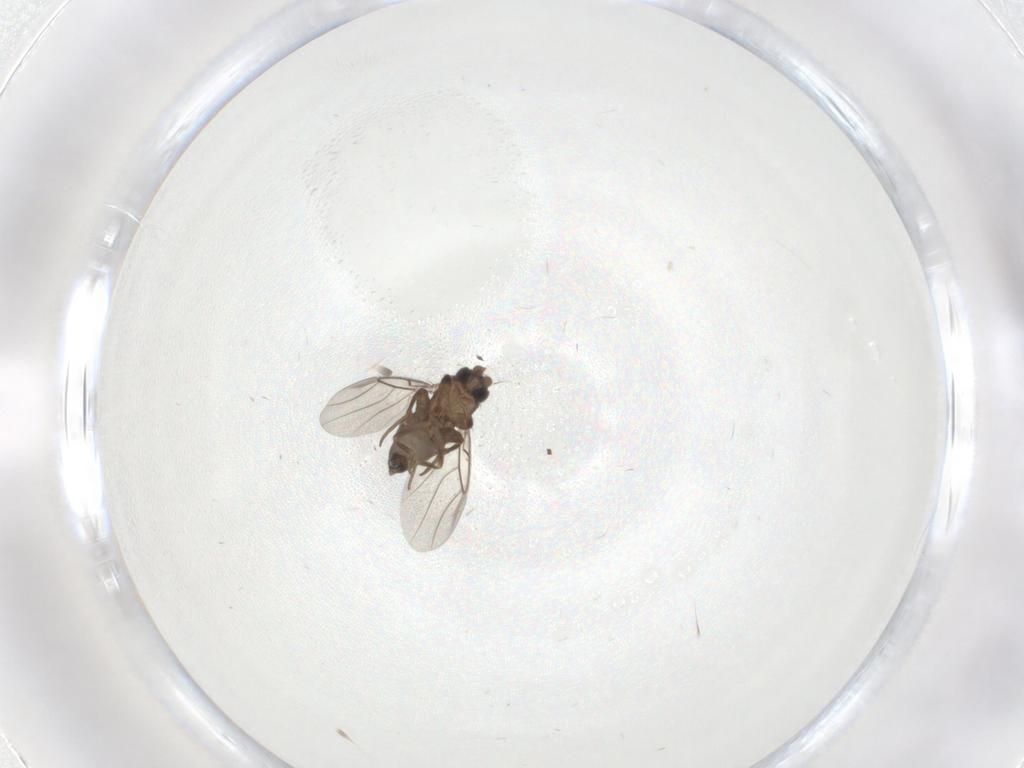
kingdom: Animalia
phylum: Arthropoda
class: Insecta
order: Diptera
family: Phoridae
